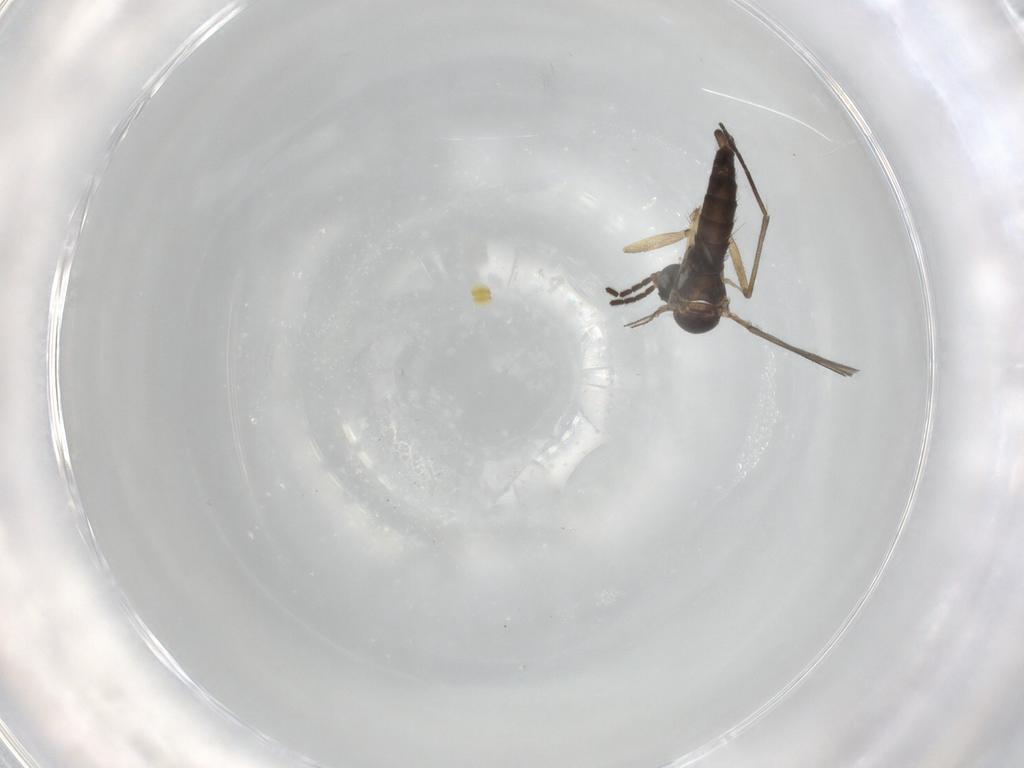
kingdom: Animalia
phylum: Arthropoda
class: Insecta
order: Diptera
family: Sciaridae
